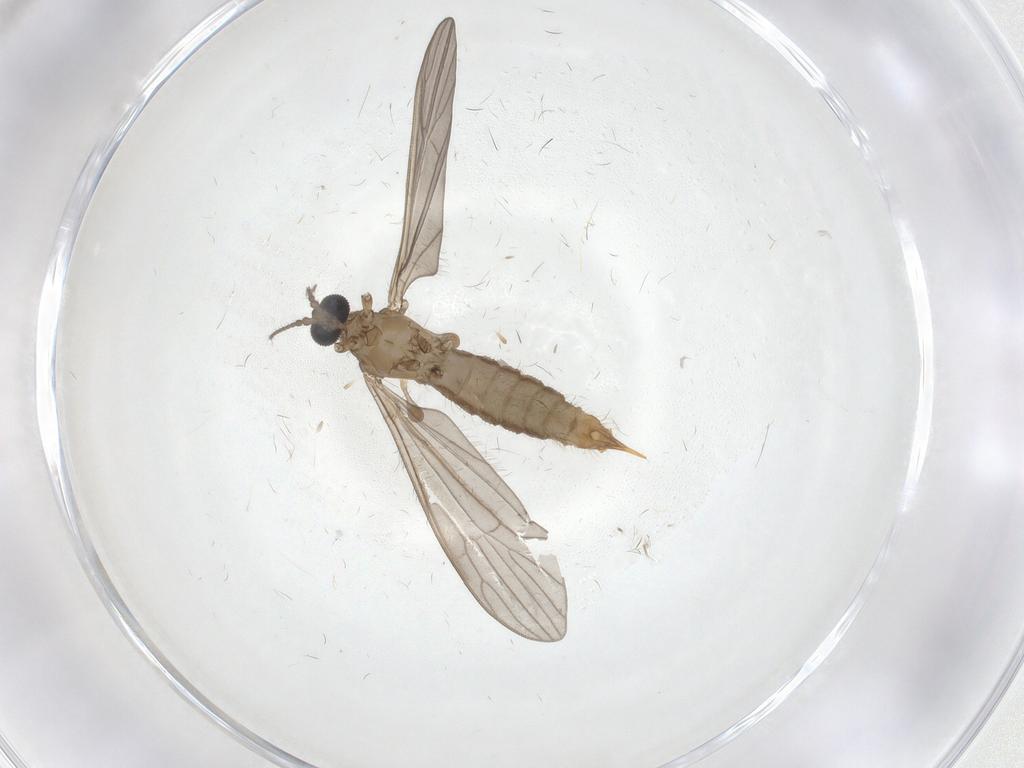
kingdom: Animalia
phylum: Arthropoda
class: Insecta
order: Diptera
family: Limoniidae
